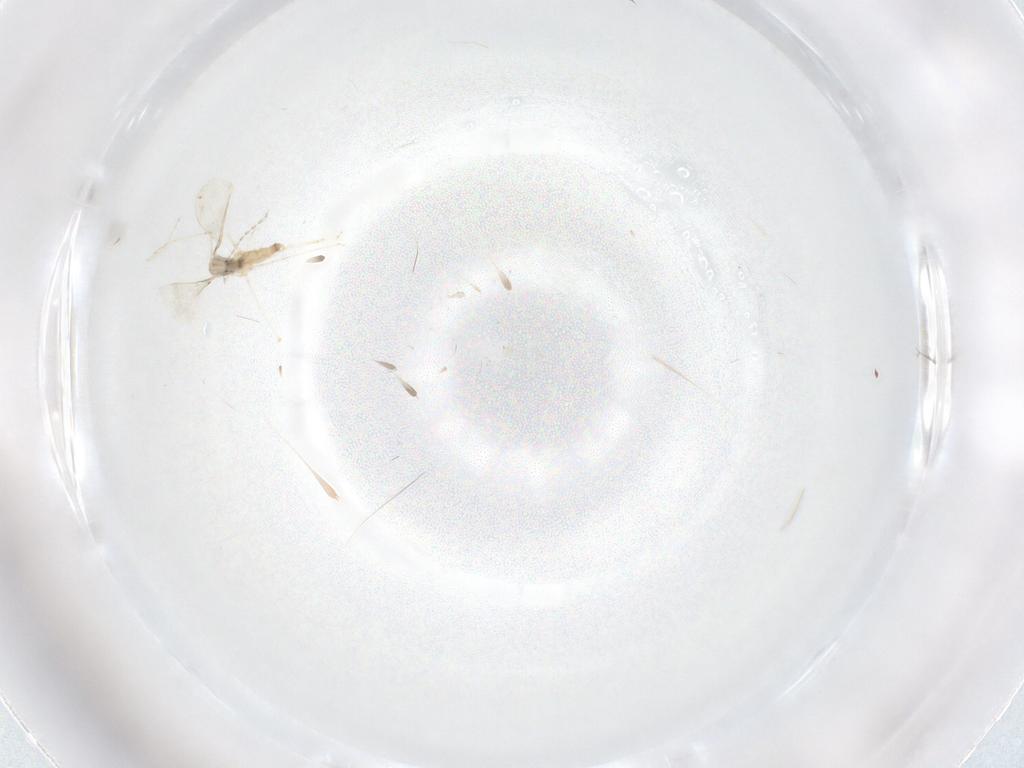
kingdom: Animalia
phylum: Arthropoda
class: Insecta
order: Diptera
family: Cecidomyiidae
